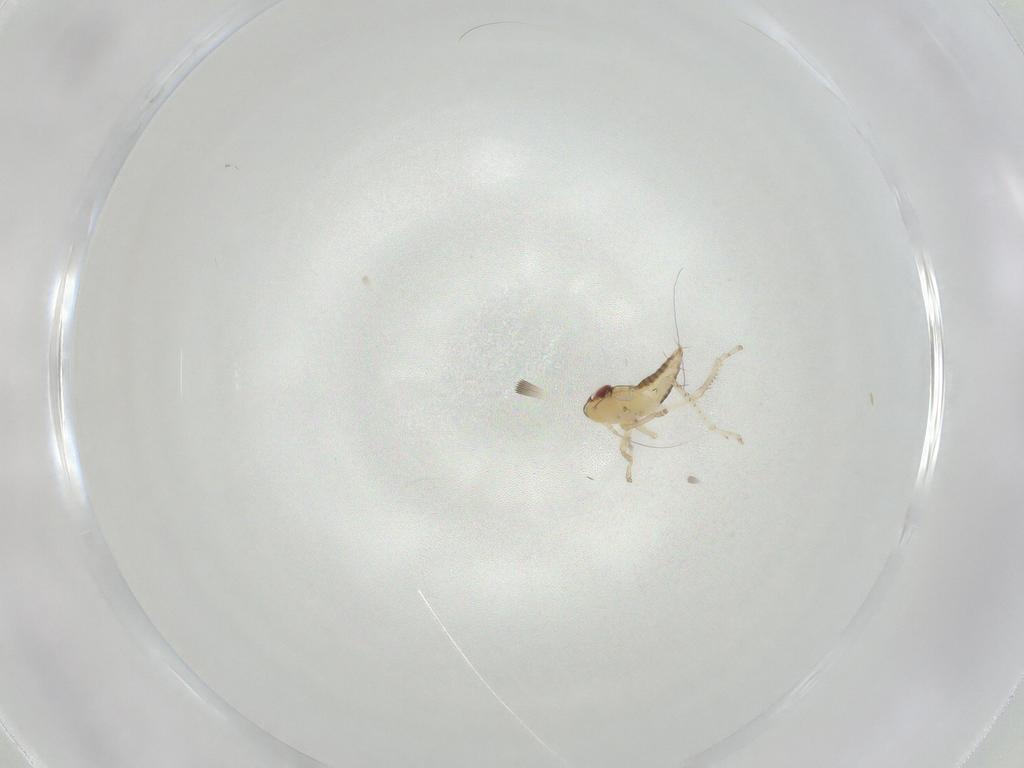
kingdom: Animalia
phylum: Arthropoda
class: Insecta
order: Hemiptera
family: Cicadellidae
